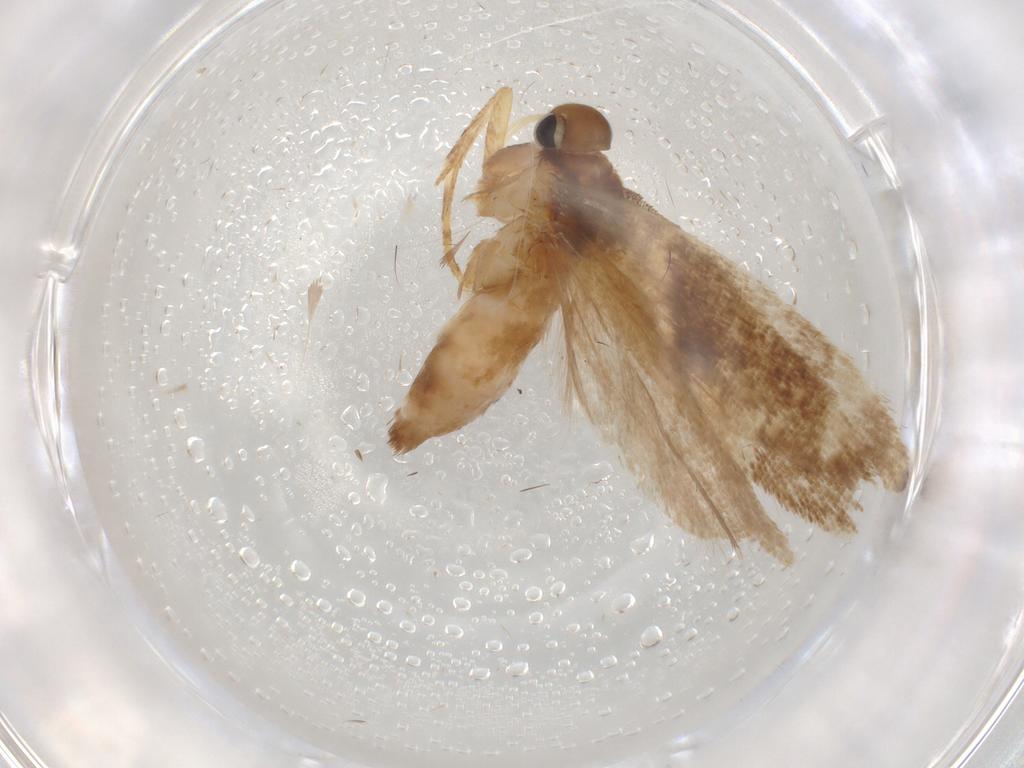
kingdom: Animalia
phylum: Arthropoda
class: Insecta
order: Lepidoptera
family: Gelechiidae
